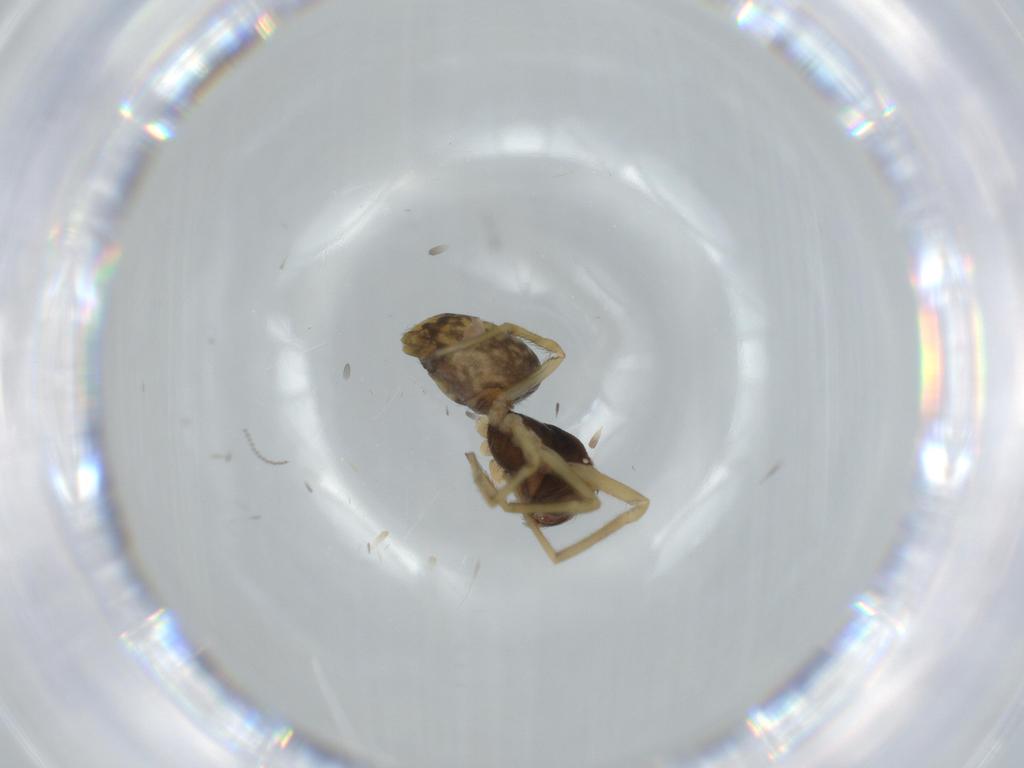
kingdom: Animalia
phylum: Arthropoda
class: Arachnida
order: Araneae
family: Dictynidae
